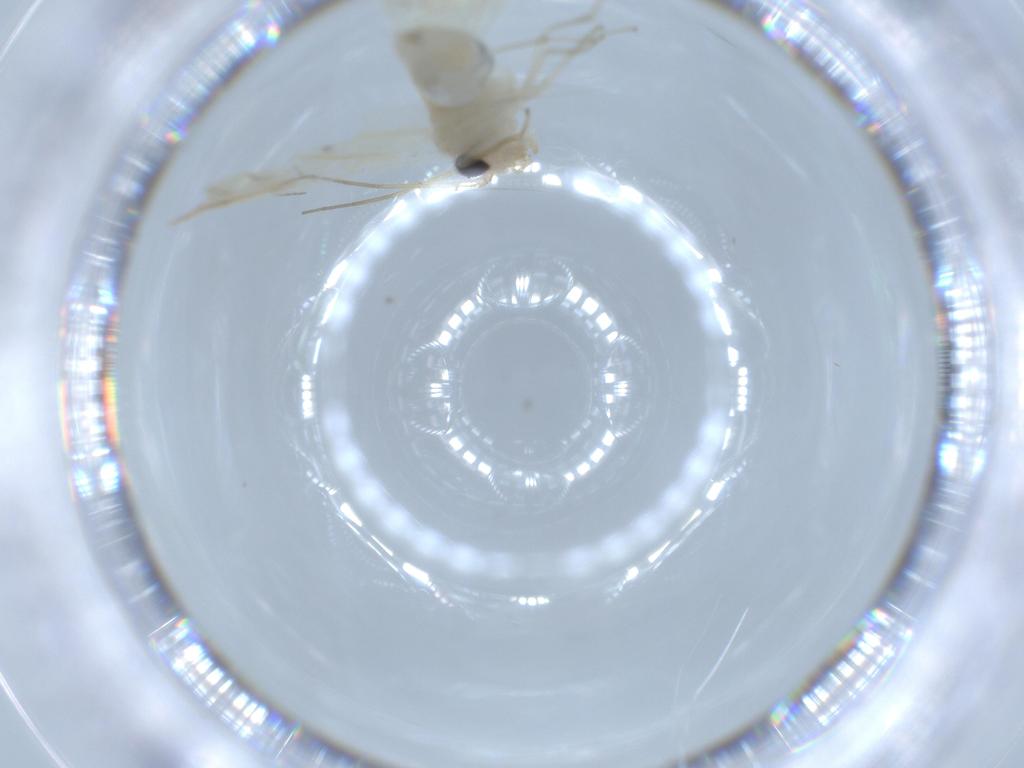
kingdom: Animalia
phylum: Arthropoda
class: Insecta
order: Psocodea
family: Caeciliusidae
